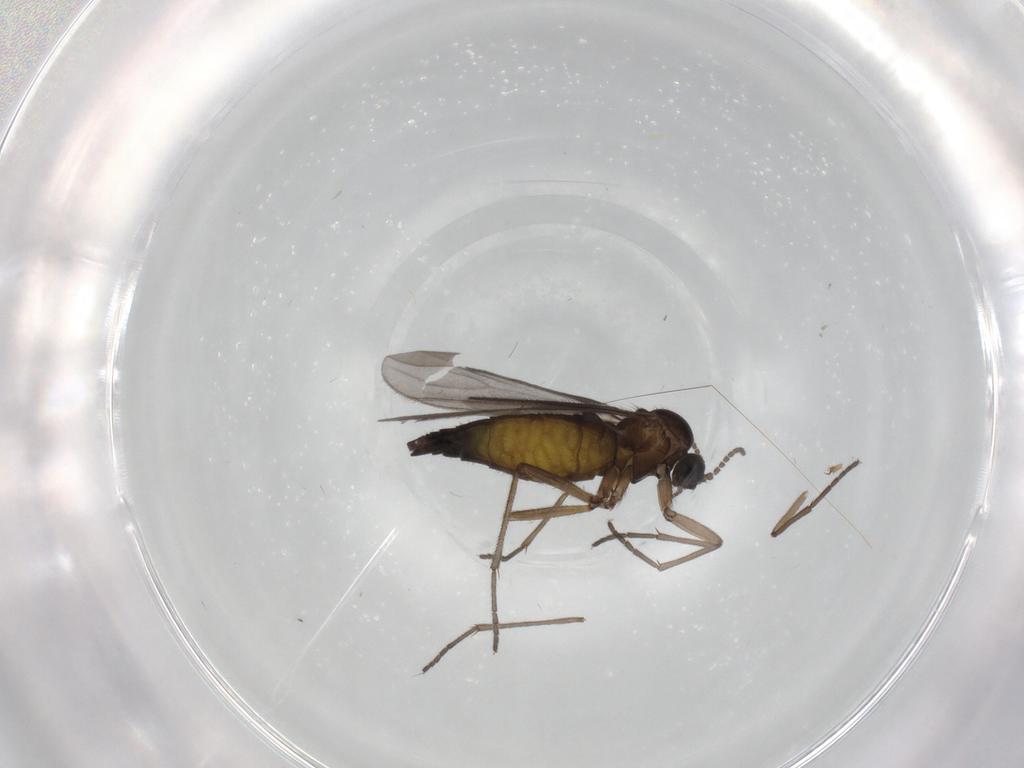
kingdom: Animalia
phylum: Arthropoda
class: Insecta
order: Diptera
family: Sciaridae
